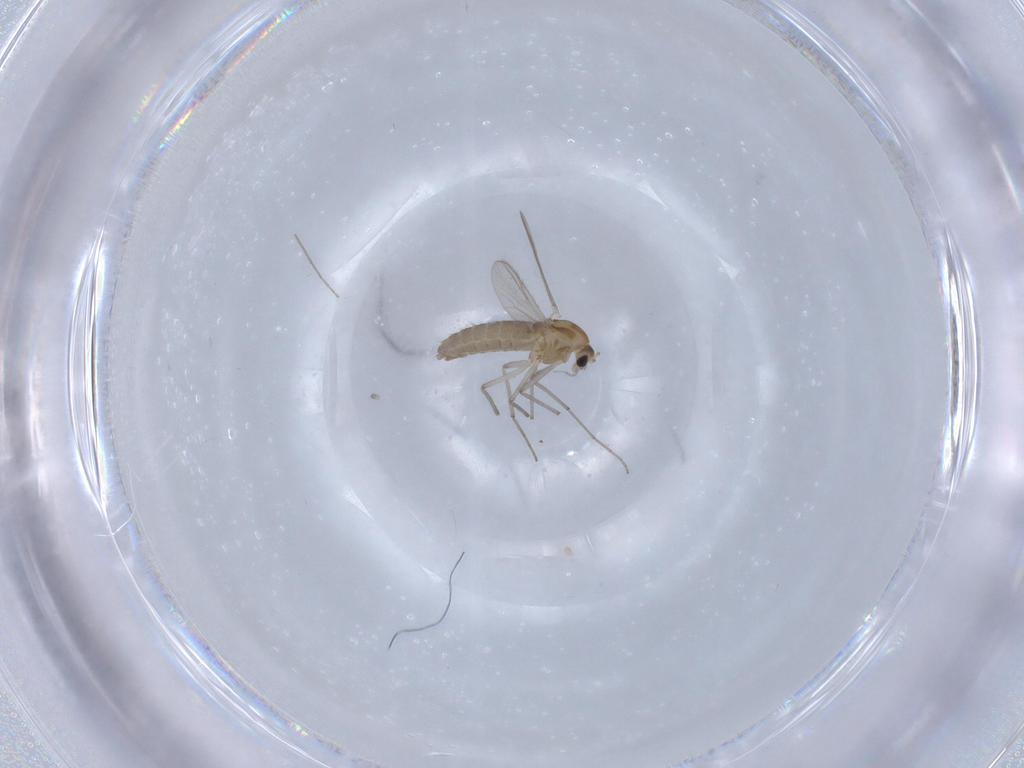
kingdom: Animalia
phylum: Arthropoda
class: Insecta
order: Diptera
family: Chironomidae
